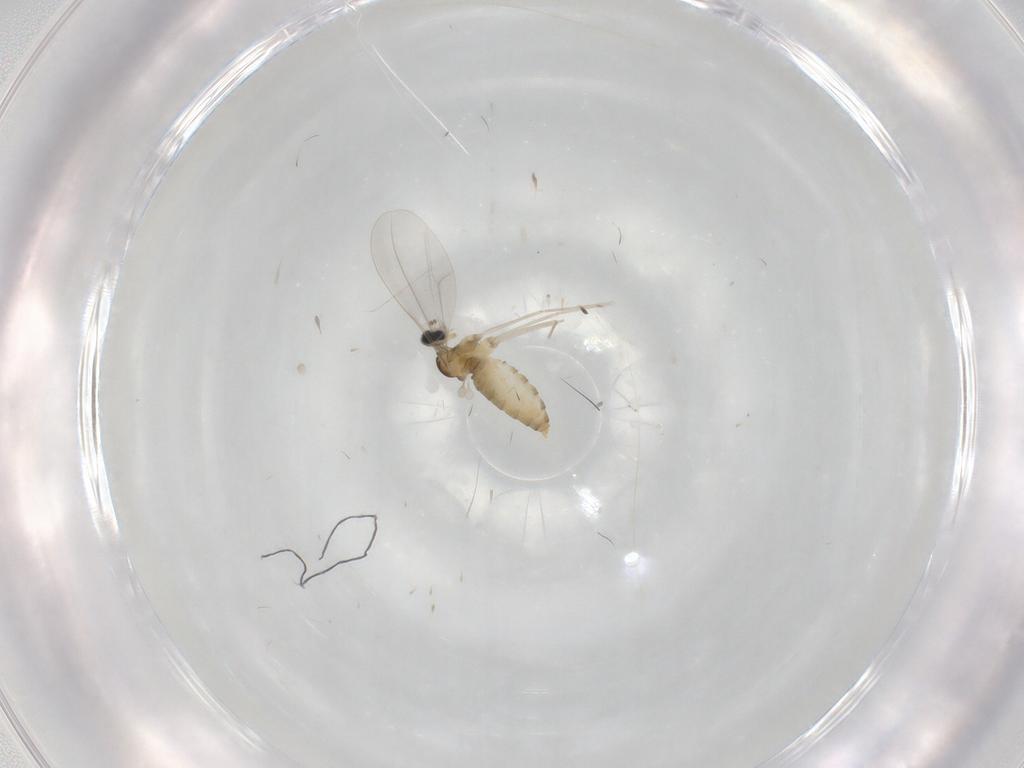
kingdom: Animalia
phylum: Arthropoda
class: Insecta
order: Diptera
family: Cecidomyiidae
